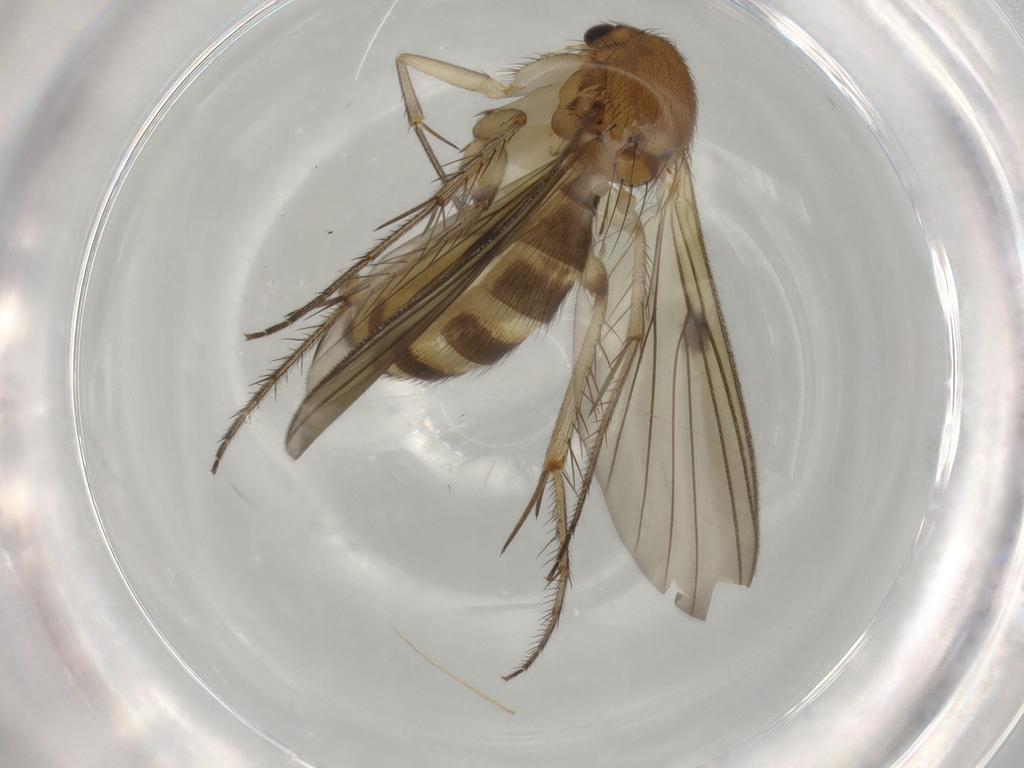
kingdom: Animalia
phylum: Arthropoda
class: Insecta
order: Diptera
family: Mycetophilidae
